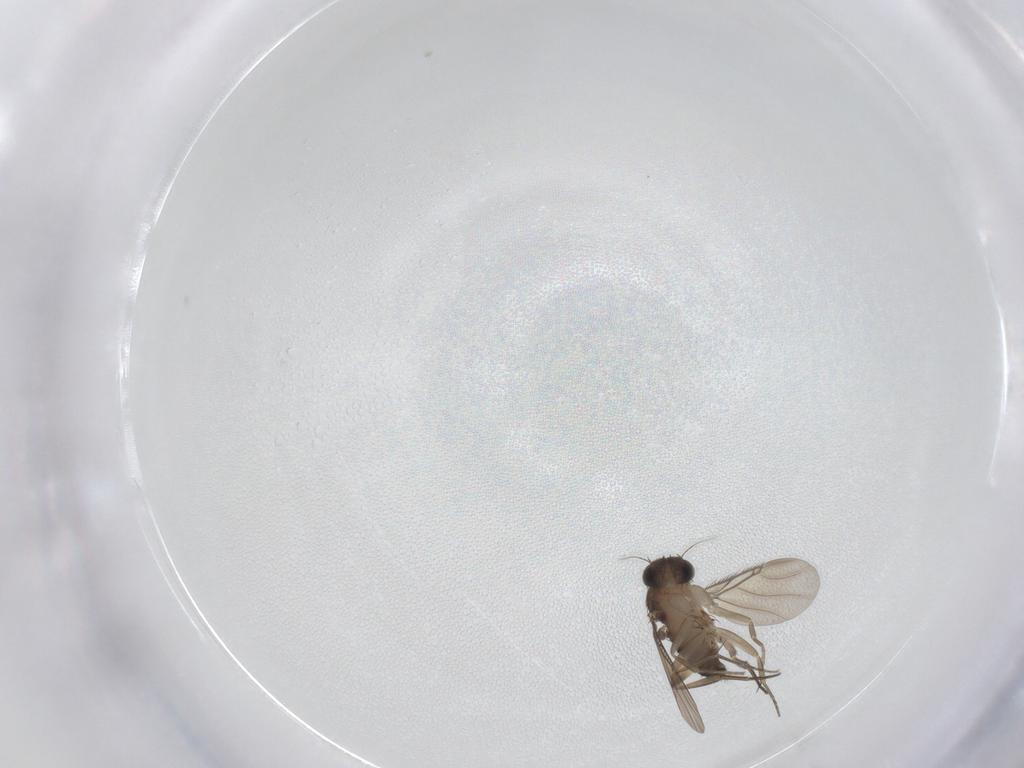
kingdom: Animalia
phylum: Arthropoda
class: Insecta
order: Diptera
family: Phoridae
